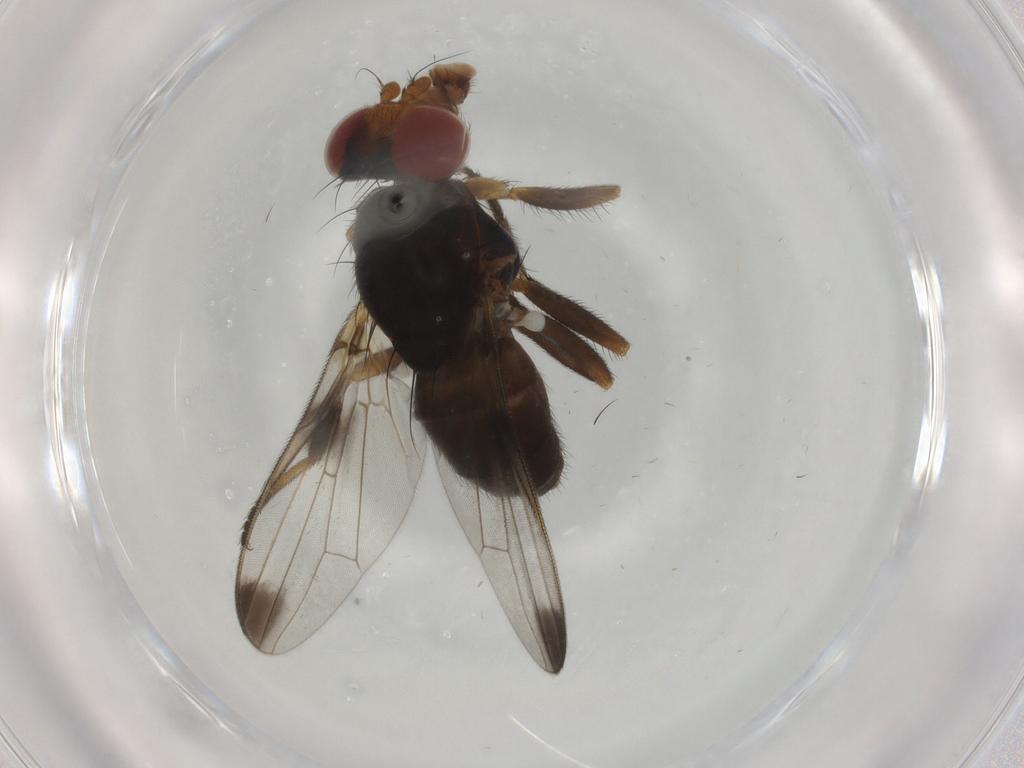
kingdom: Animalia
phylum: Arthropoda
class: Insecta
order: Diptera
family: Ulidiidae
